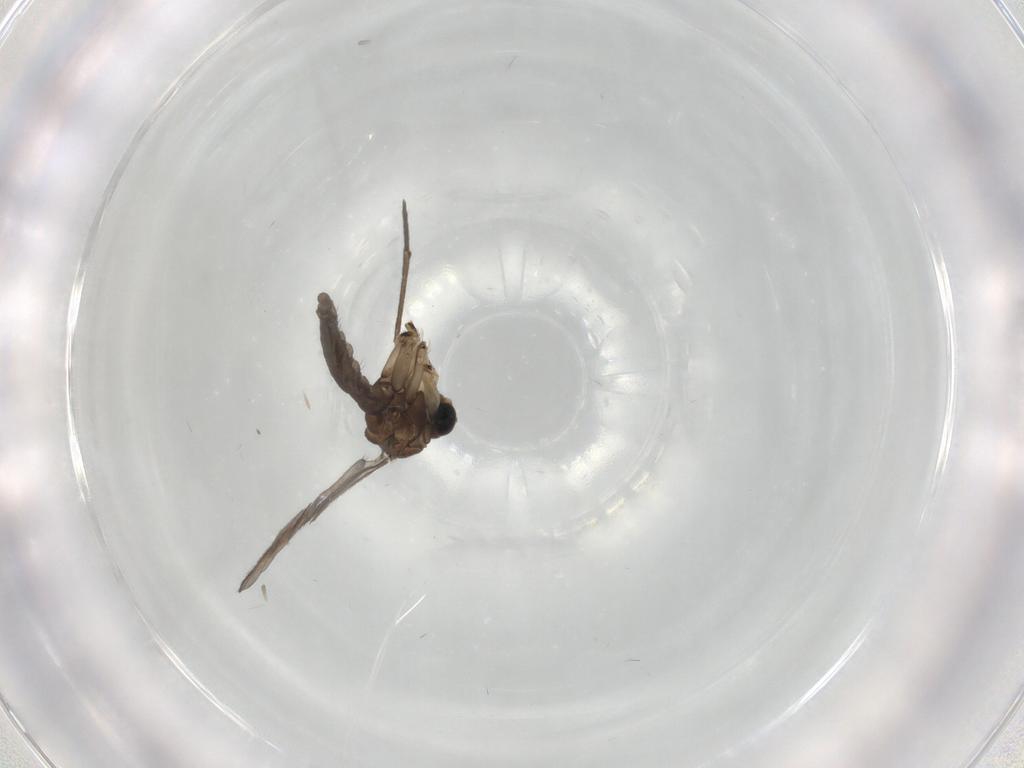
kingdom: Animalia
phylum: Arthropoda
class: Insecta
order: Diptera
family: Sciaridae
